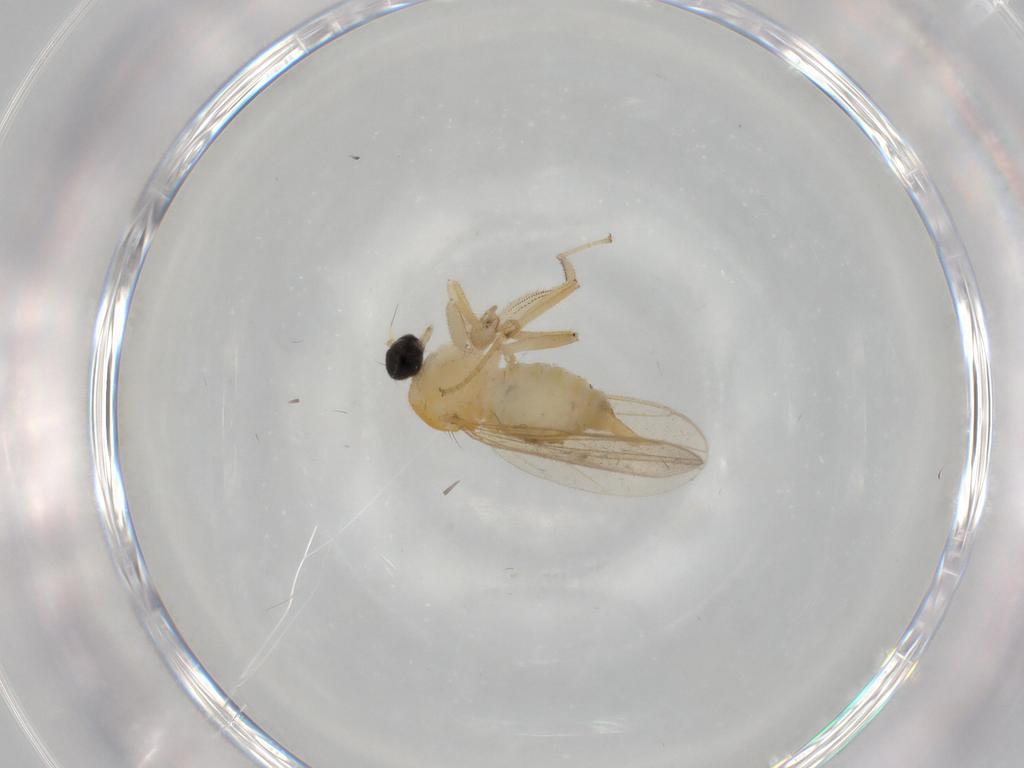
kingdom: Animalia
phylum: Arthropoda
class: Insecta
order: Diptera
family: Hybotidae
